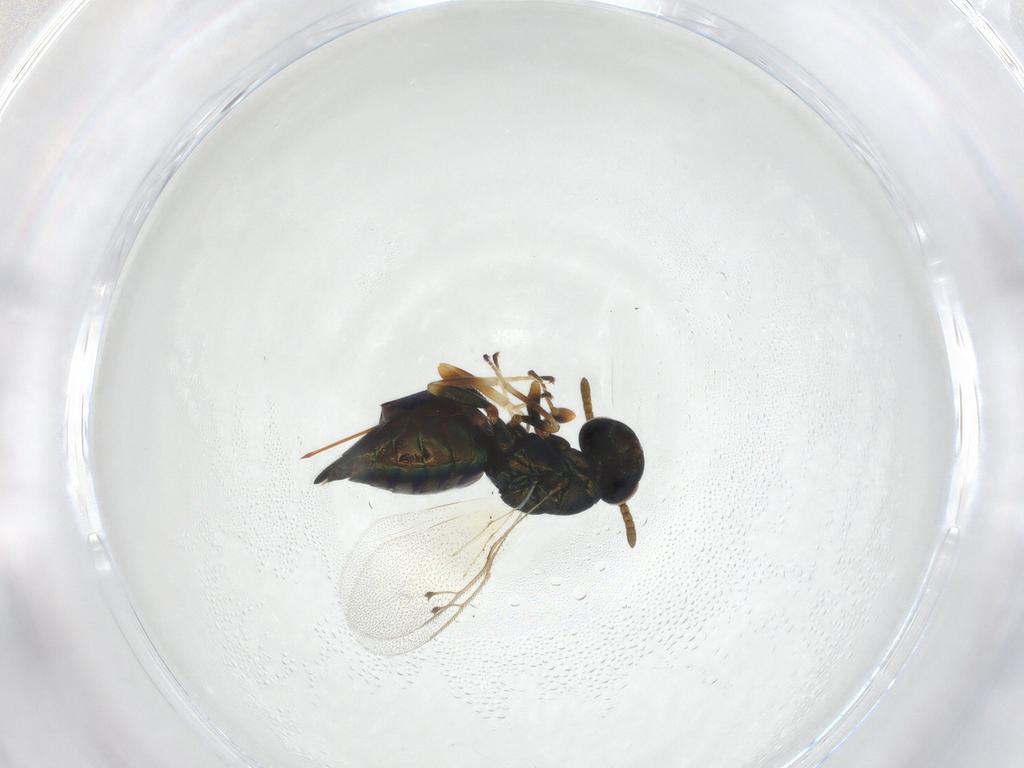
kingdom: Animalia
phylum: Arthropoda
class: Insecta
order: Hymenoptera
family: Pteromalidae
